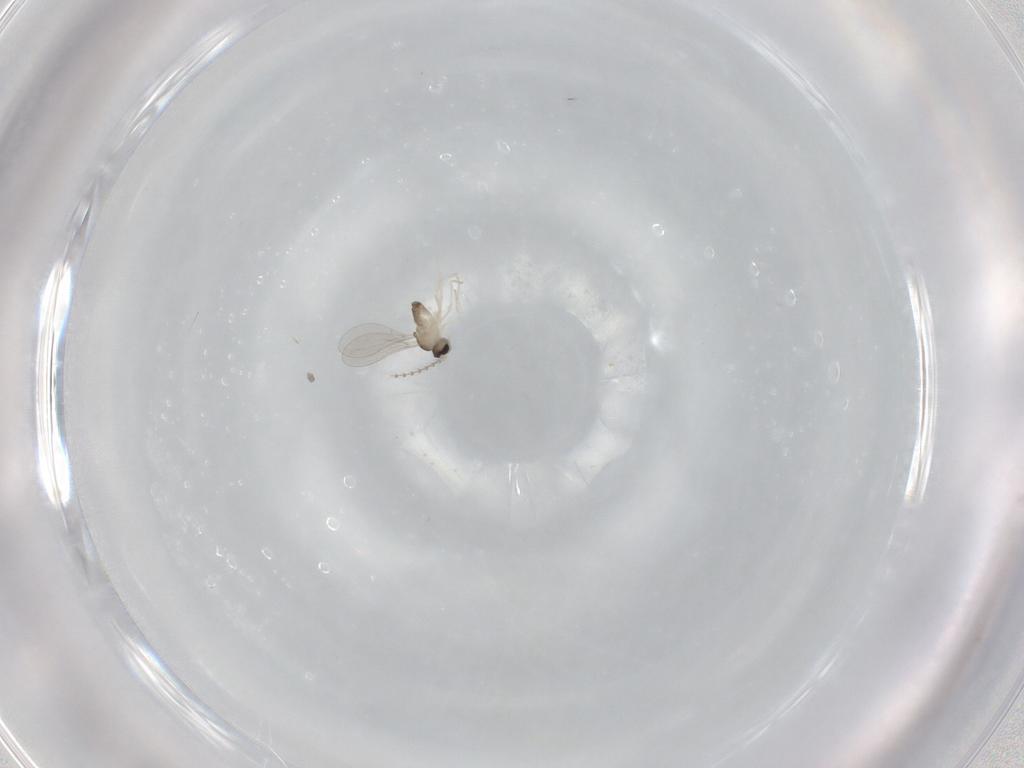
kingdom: Animalia
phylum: Arthropoda
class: Insecta
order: Diptera
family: Cecidomyiidae
